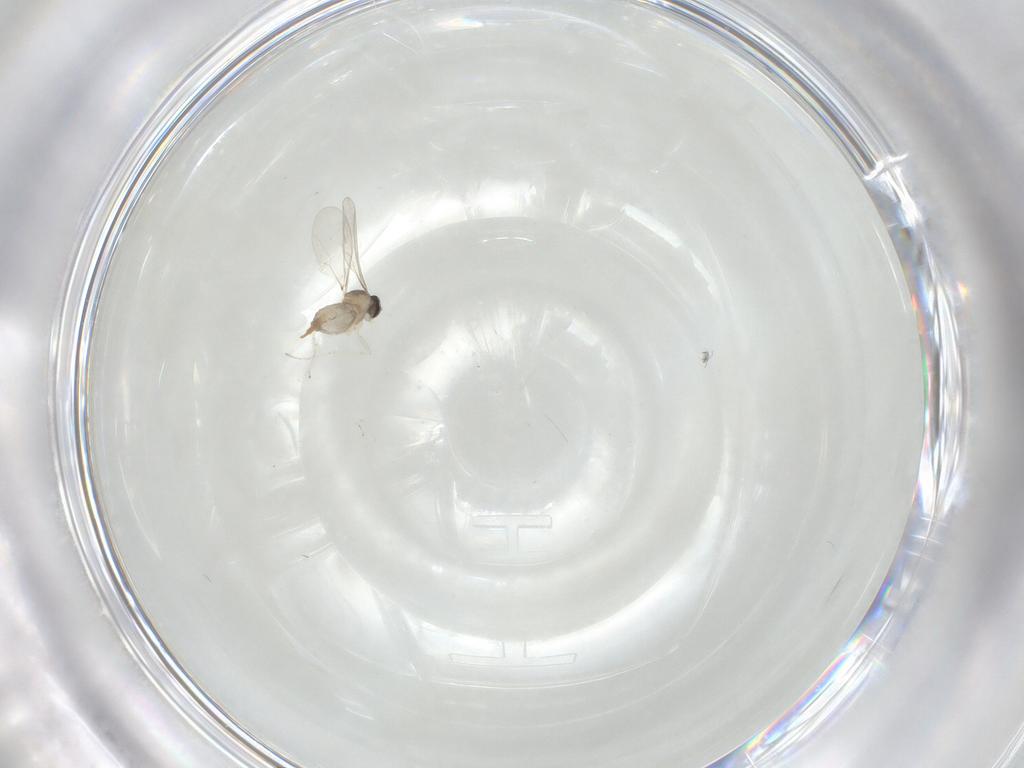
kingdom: Animalia
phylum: Arthropoda
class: Insecta
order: Diptera
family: Cecidomyiidae
